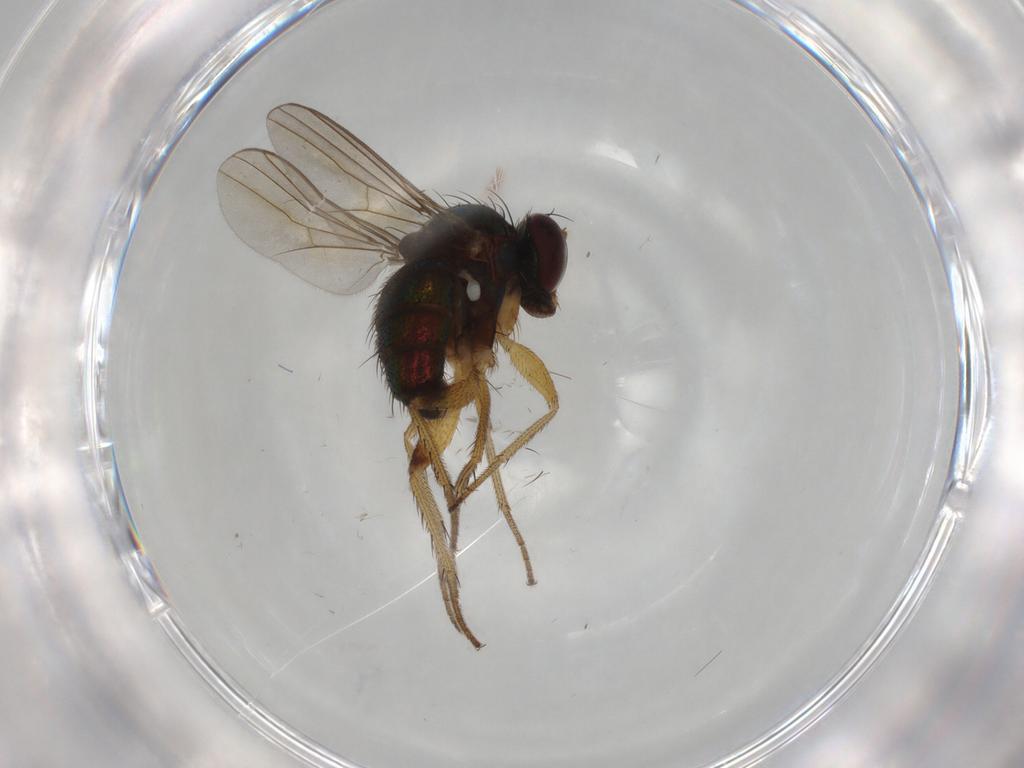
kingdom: Animalia
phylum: Arthropoda
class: Insecta
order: Diptera
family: Dolichopodidae
